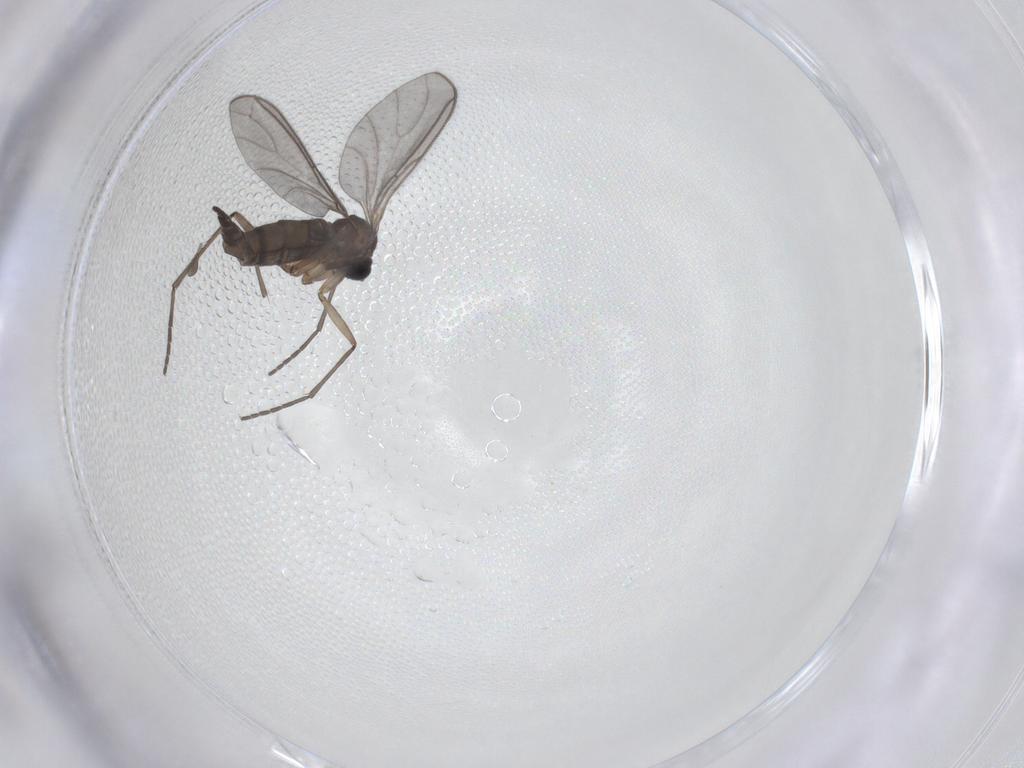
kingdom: Animalia
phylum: Arthropoda
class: Insecta
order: Diptera
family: Sciaridae
